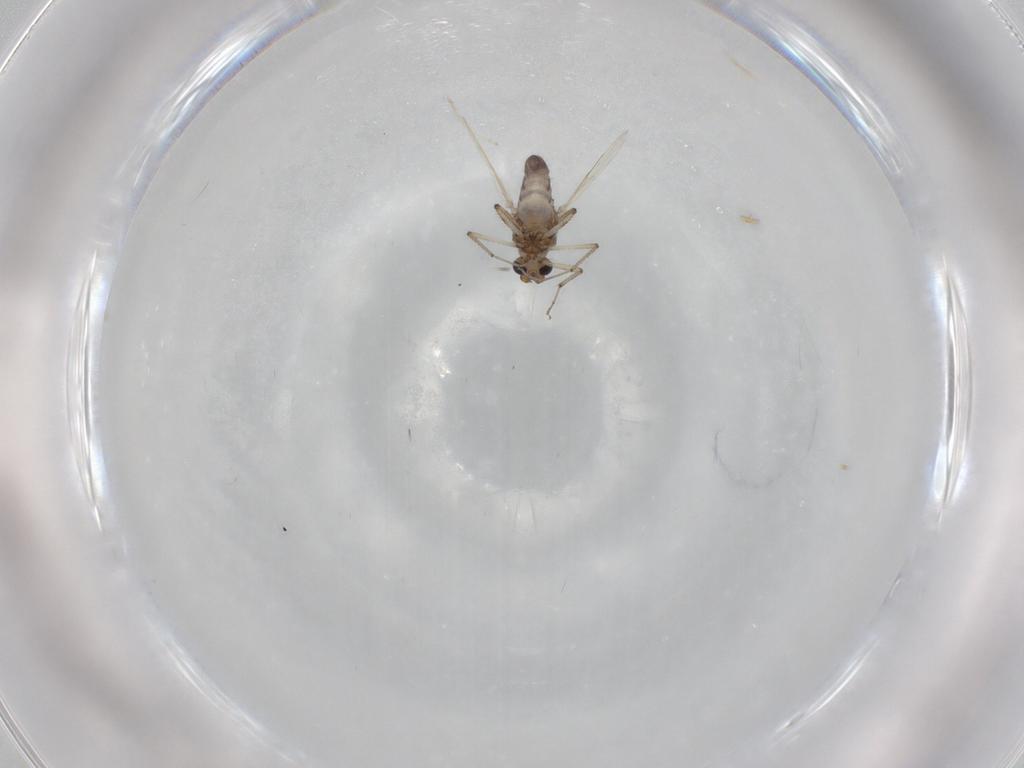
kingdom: Animalia
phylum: Arthropoda
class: Insecta
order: Diptera
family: Ceratopogonidae
